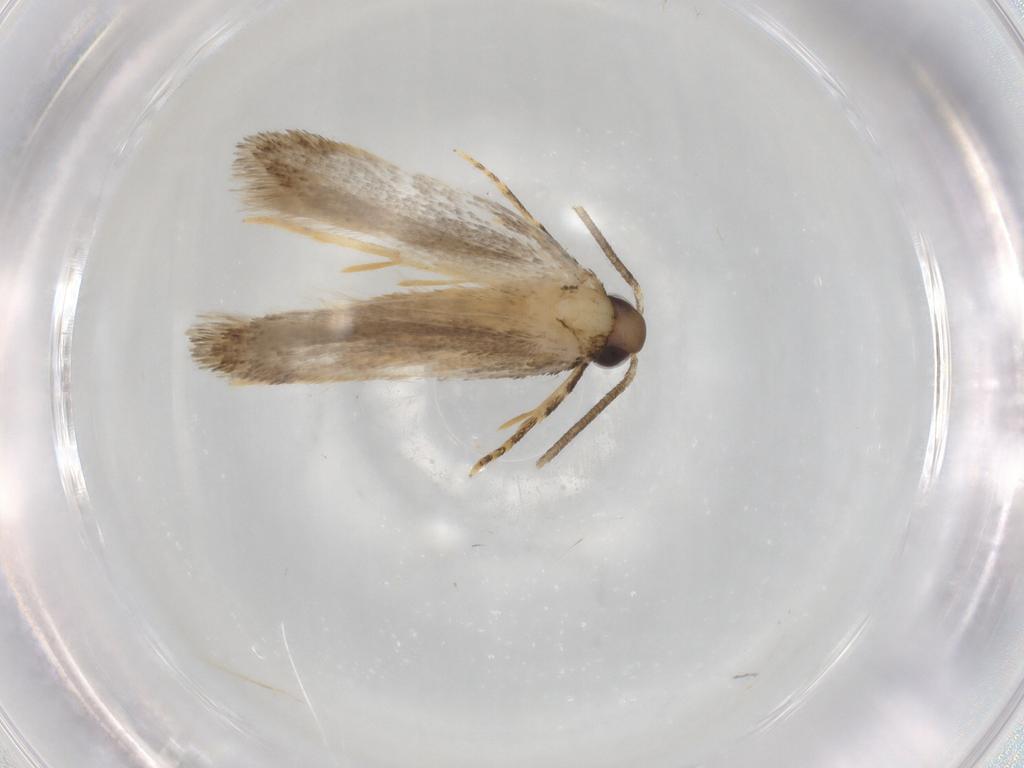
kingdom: Animalia
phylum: Arthropoda
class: Insecta
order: Lepidoptera
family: Autostichidae
